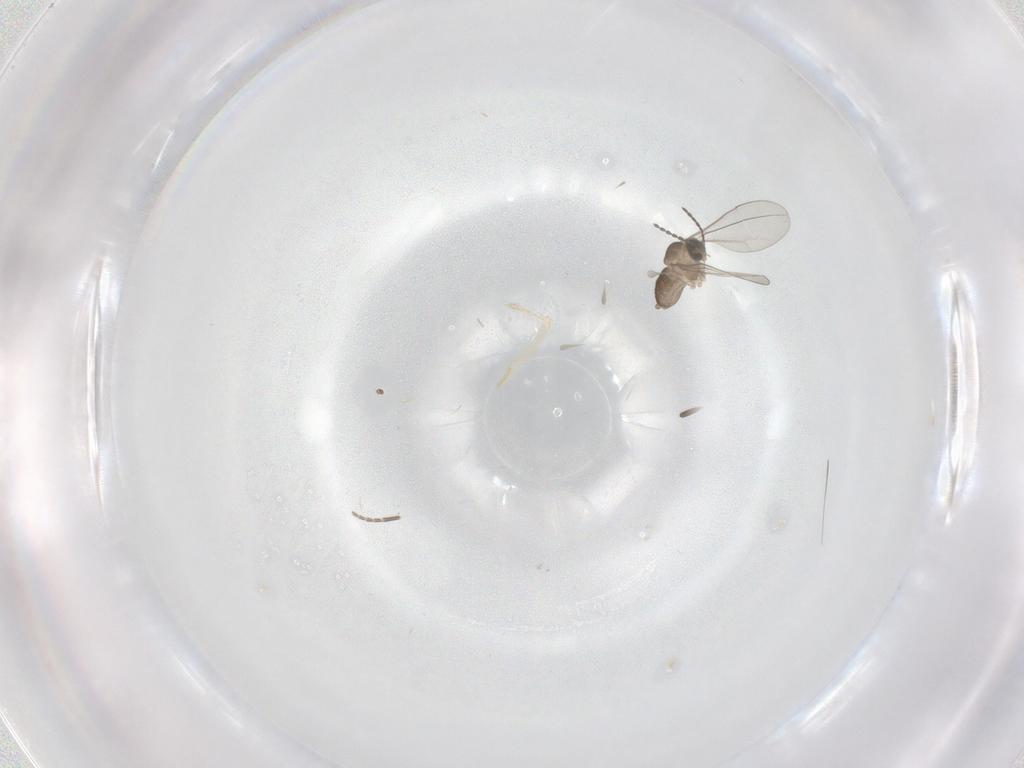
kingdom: Animalia
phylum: Arthropoda
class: Insecta
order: Diptera
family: Cecidomyiidae
